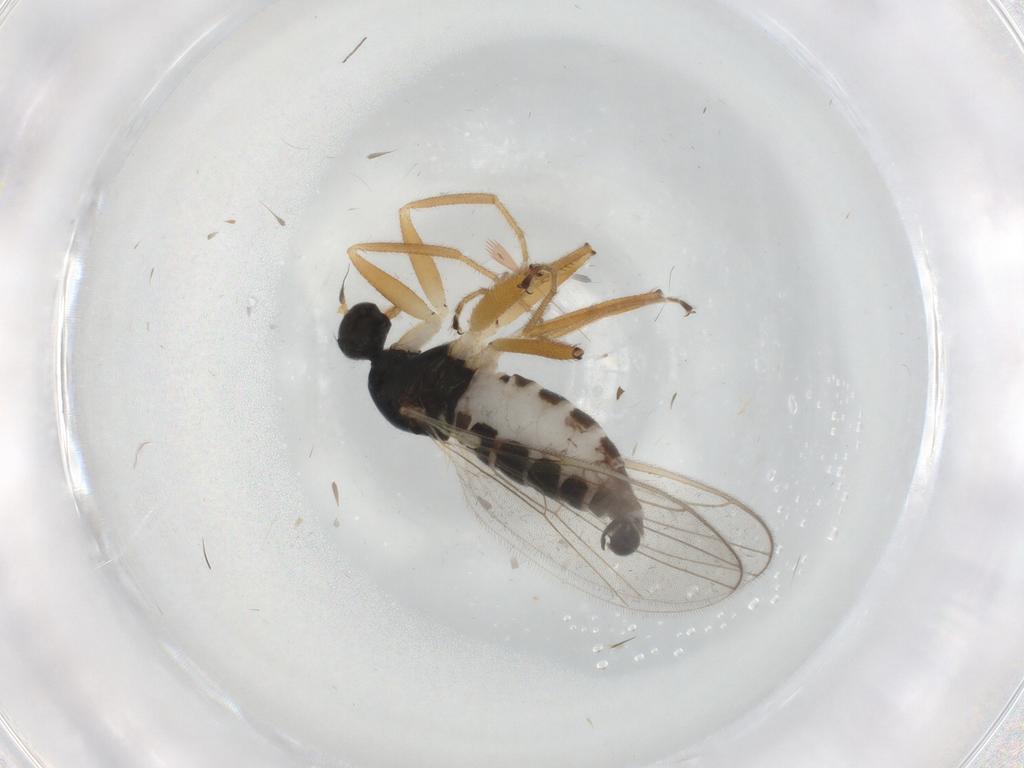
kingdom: Animalia
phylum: Arthropoda
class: Insecta
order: Diptera
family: Hybotidae
